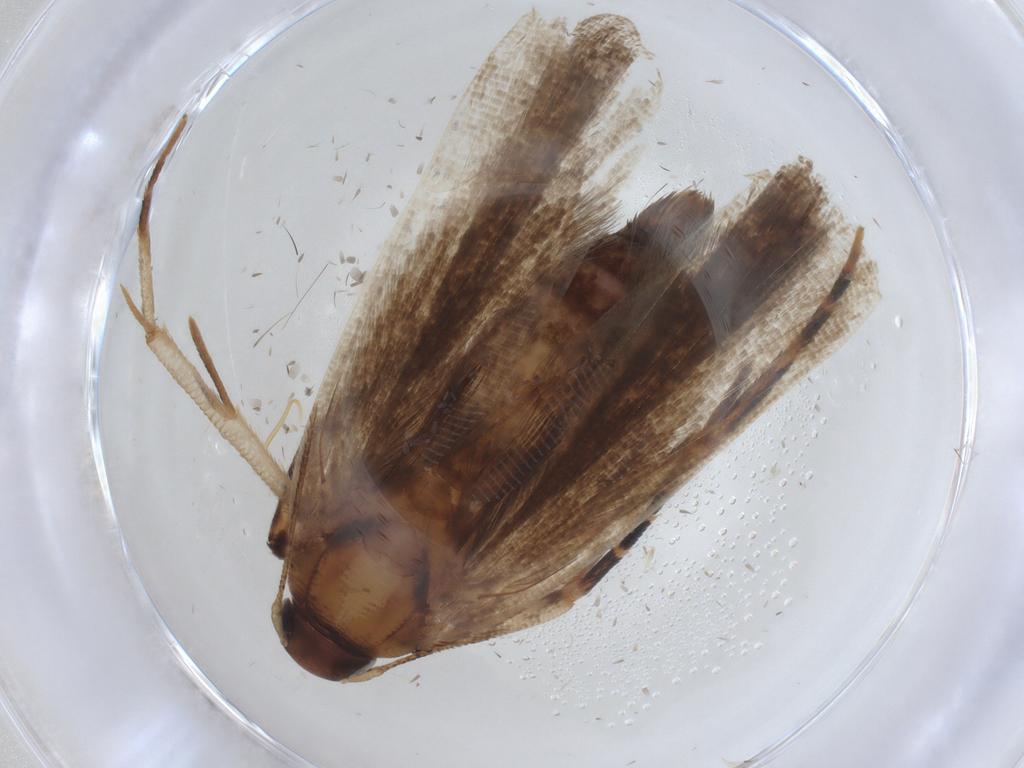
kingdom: Animalia
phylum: Arthropoda
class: Insecta
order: Lepidoptera
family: Gelechiidae
